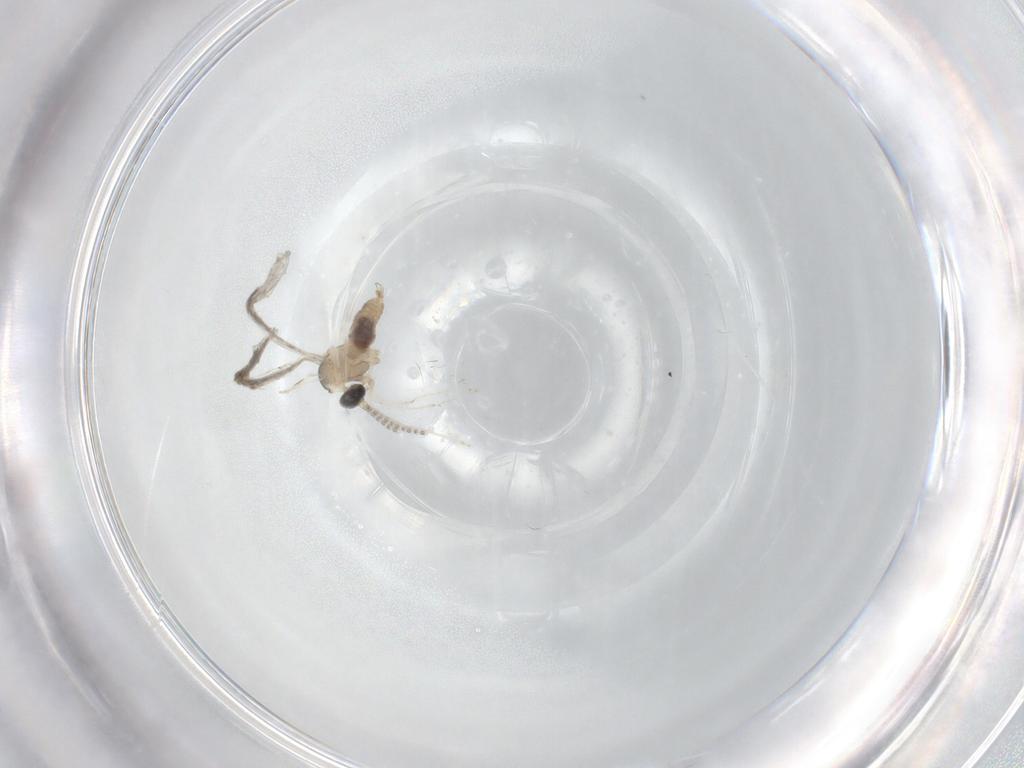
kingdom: Animalia
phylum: Arthropoda
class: Insecta
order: Diptera
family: Cecidomyiidae
